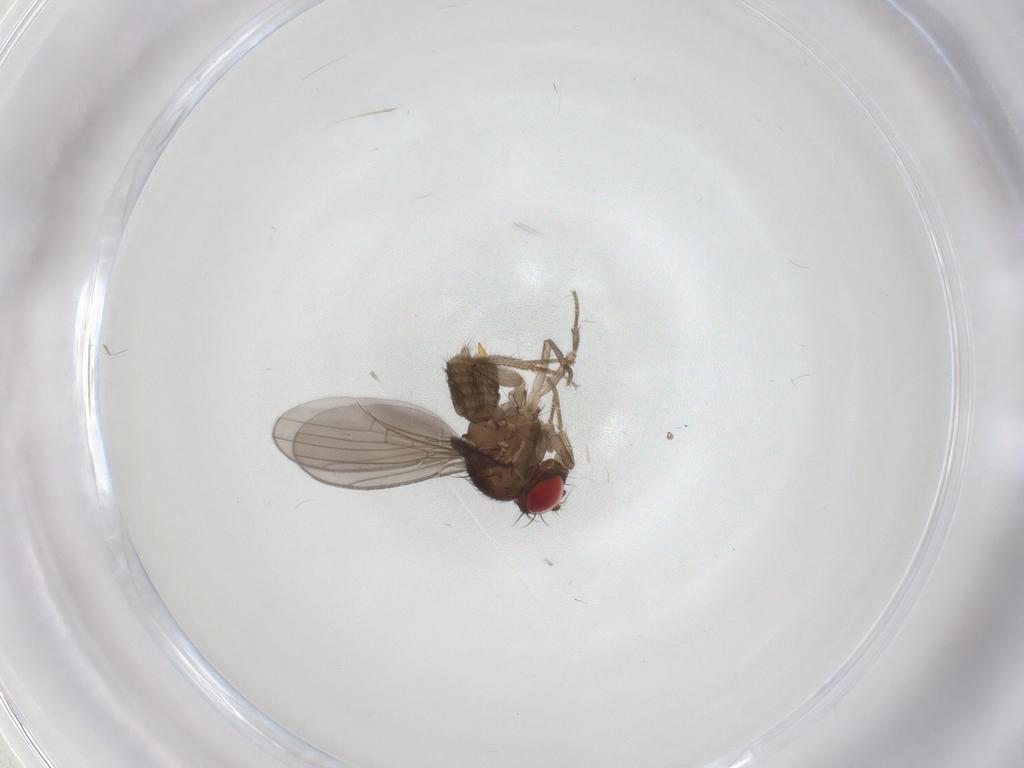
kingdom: Animalia
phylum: Arthropoda
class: Insecta
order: Diptera
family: Drosophilidae
